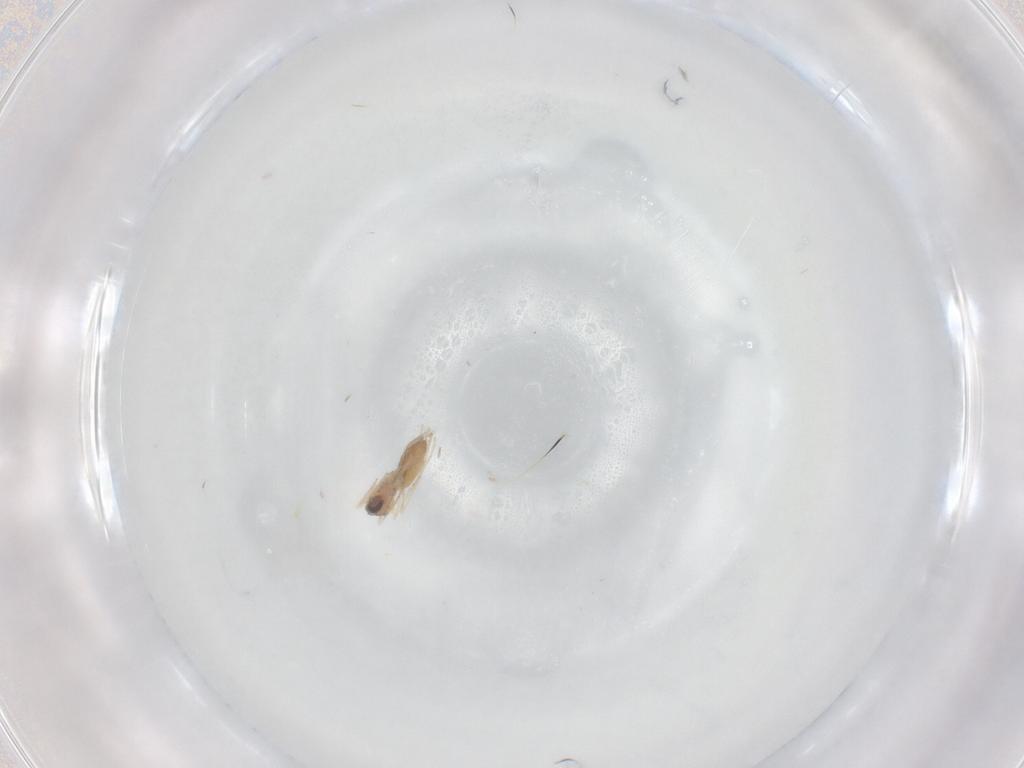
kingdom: Animalia
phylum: Arthropoda
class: Insecta
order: Diptera
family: Cecidomyiidae
